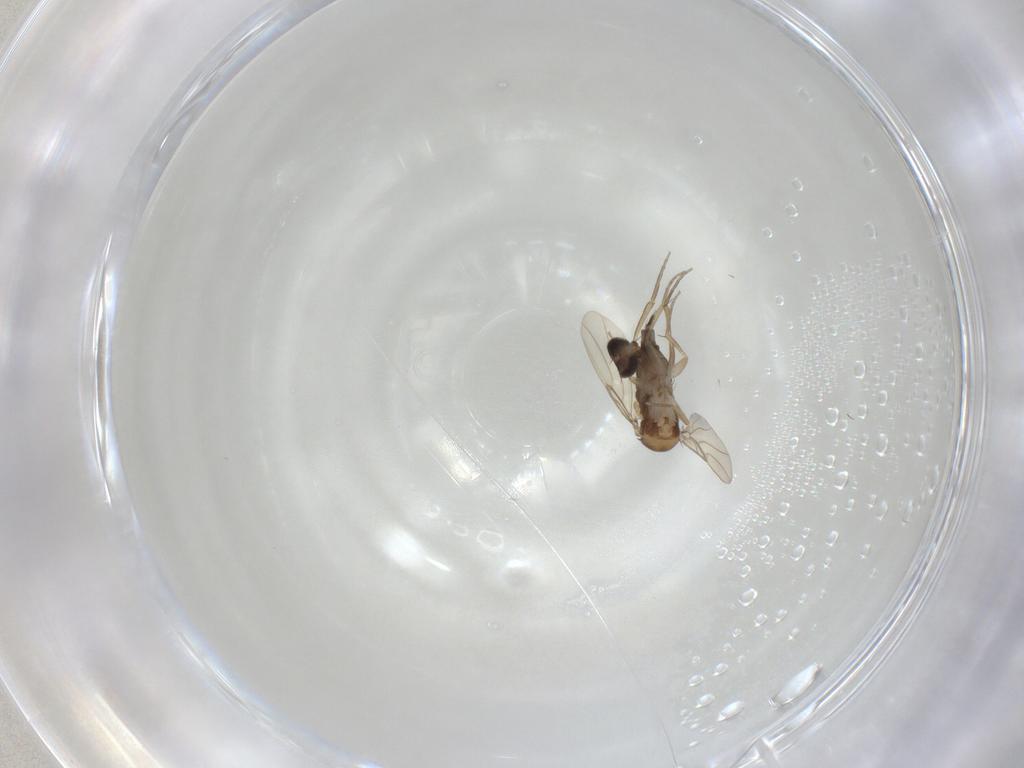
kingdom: Animalia
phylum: Arthropoda
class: Insecta
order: Diptera
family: Phoridae
